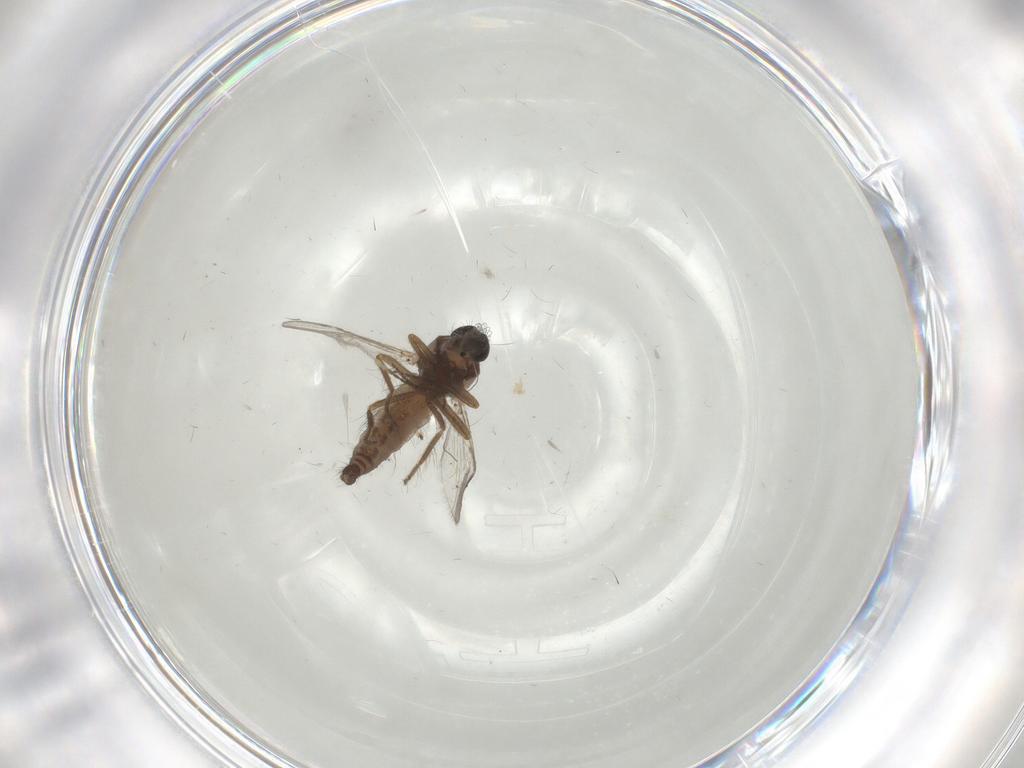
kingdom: Animalia
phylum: Arthropoda
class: Insecta
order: Diptera
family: Ceratopogonidae
